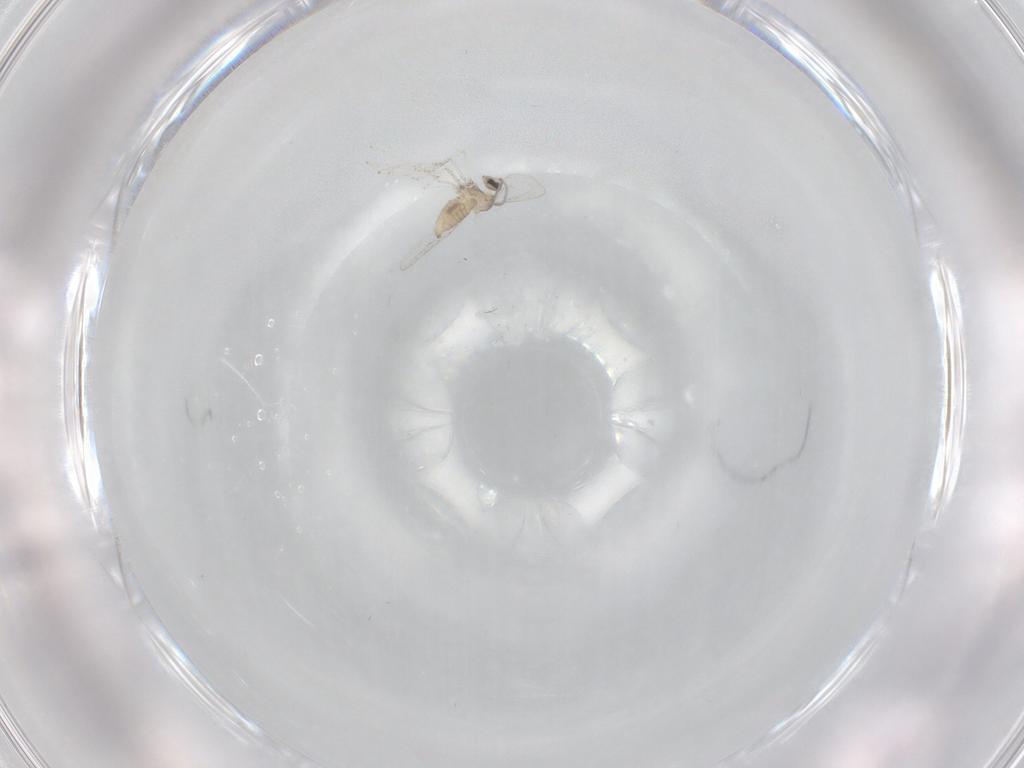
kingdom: Animalia
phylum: Arthropoda
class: Insecta
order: Diptera
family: Cecidomyiidae
